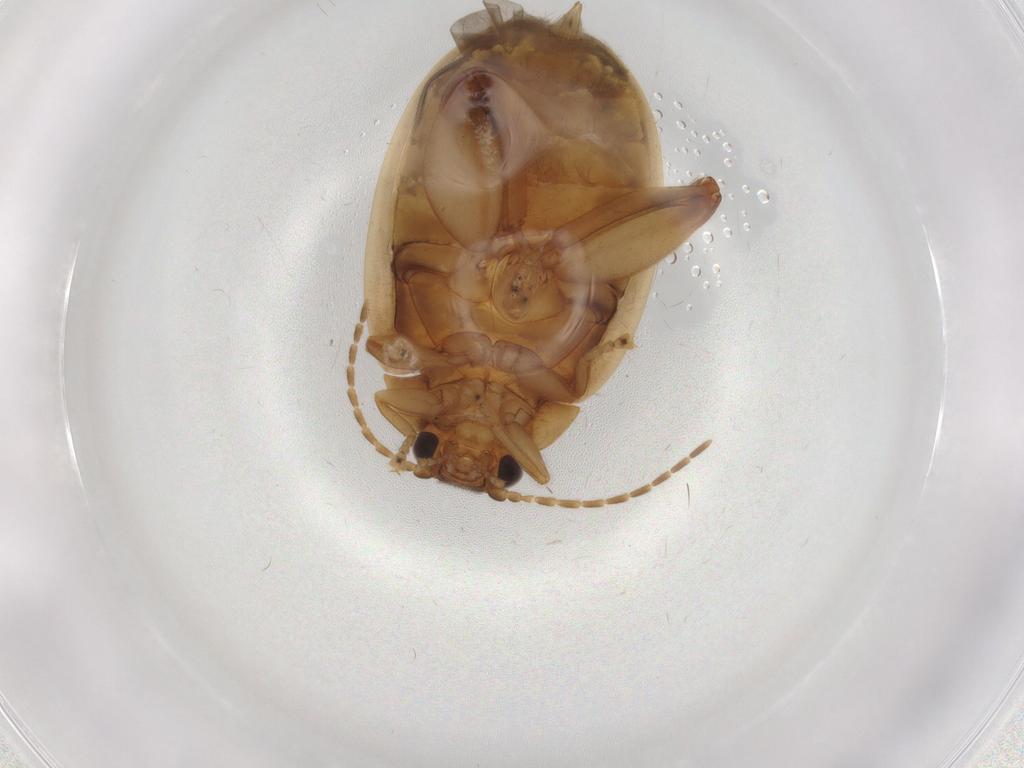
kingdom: Animalia
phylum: Arthropoda
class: Insecta
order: Coleoptera
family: Scirtidae
